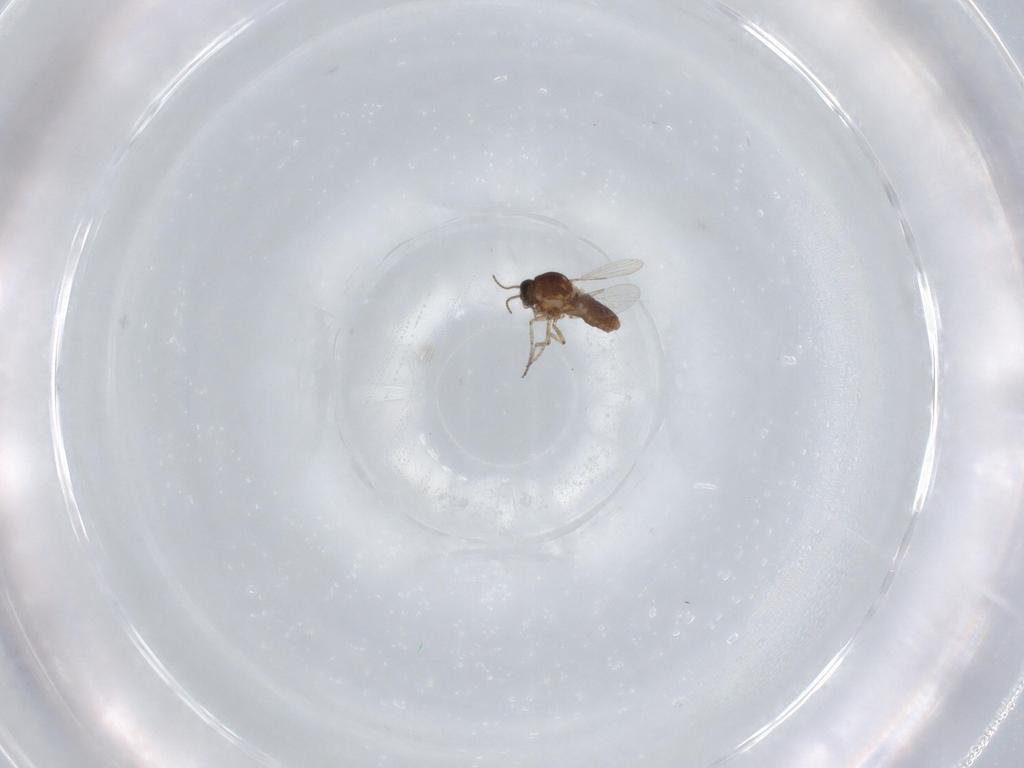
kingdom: Animalia
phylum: Arthropoda
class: Insecta
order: Diptera
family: Ceratopogonidae
